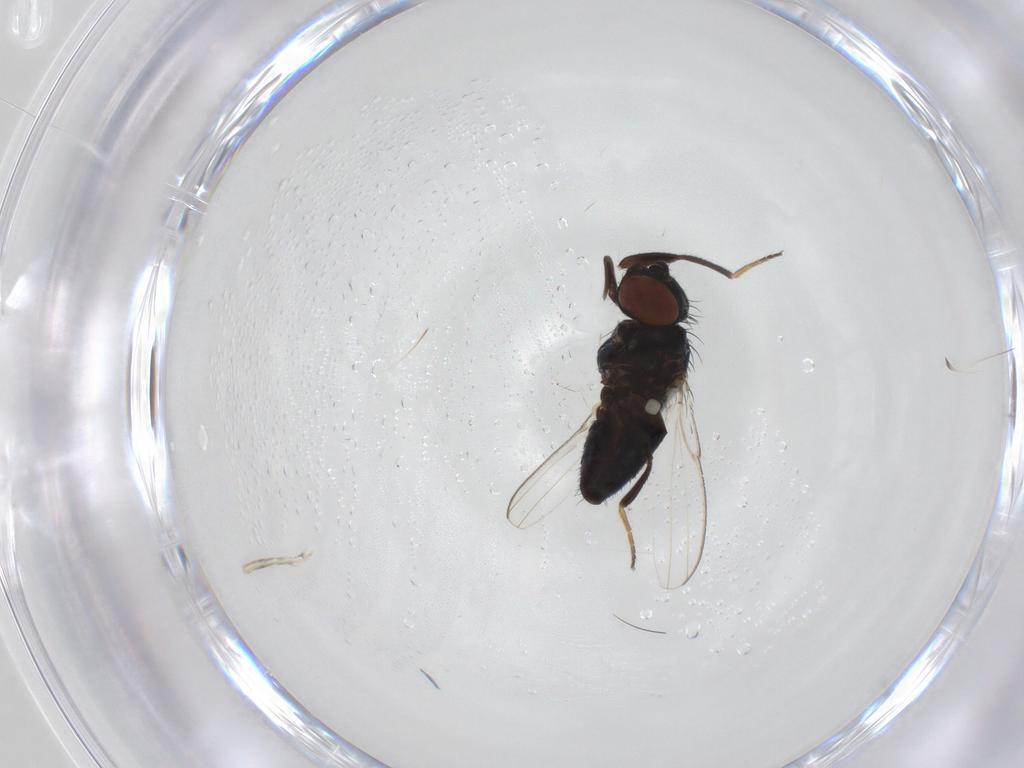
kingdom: Animalia
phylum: Arthropoda
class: Insecta
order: Diptera
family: Milichiidae
